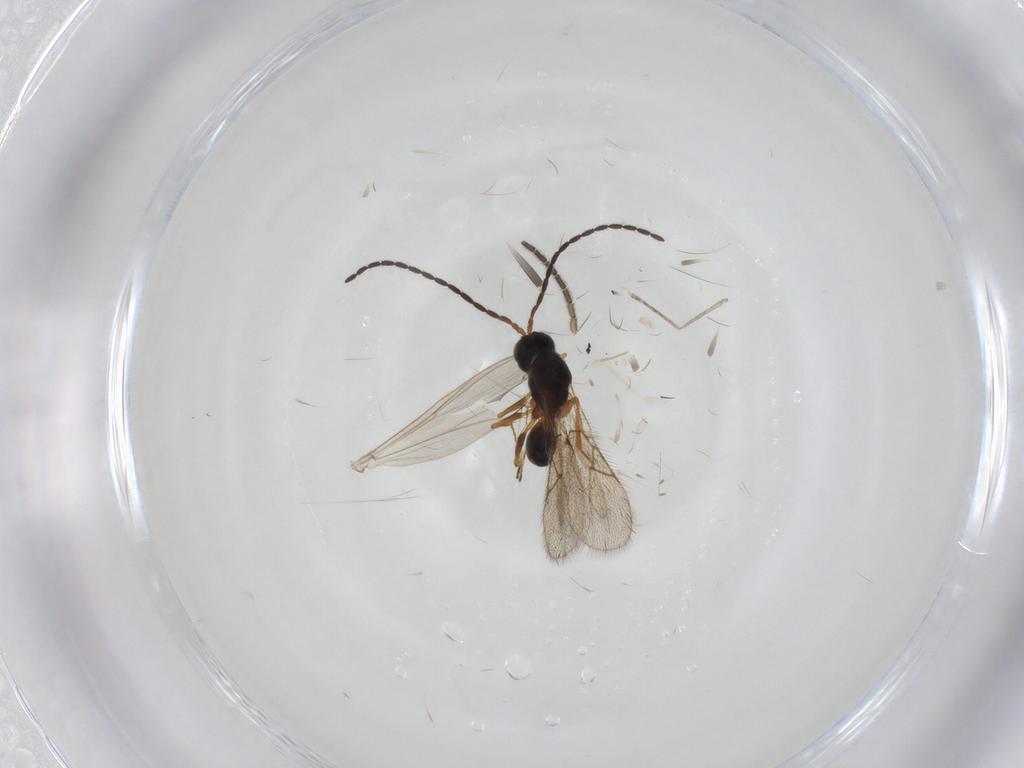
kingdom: Animalia
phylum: Arthropoda
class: Insecta
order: Hymenoptera
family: Figitidae
